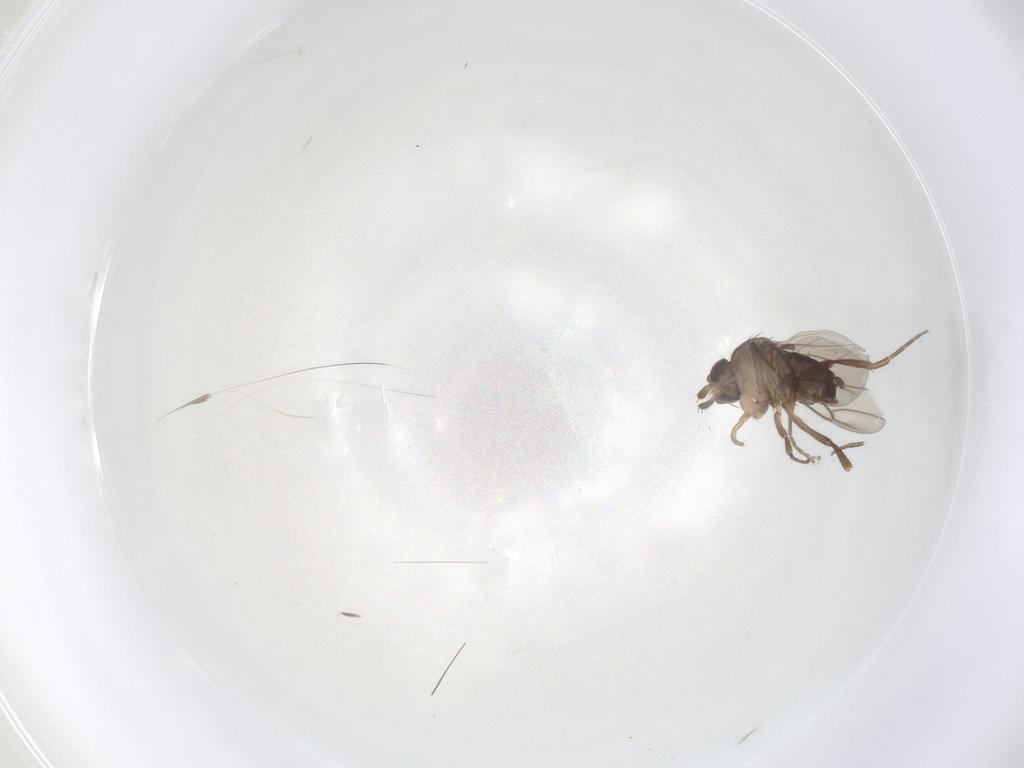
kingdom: Animalia
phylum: Arthropoda
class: Insecta
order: Diptera
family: Phoridae
